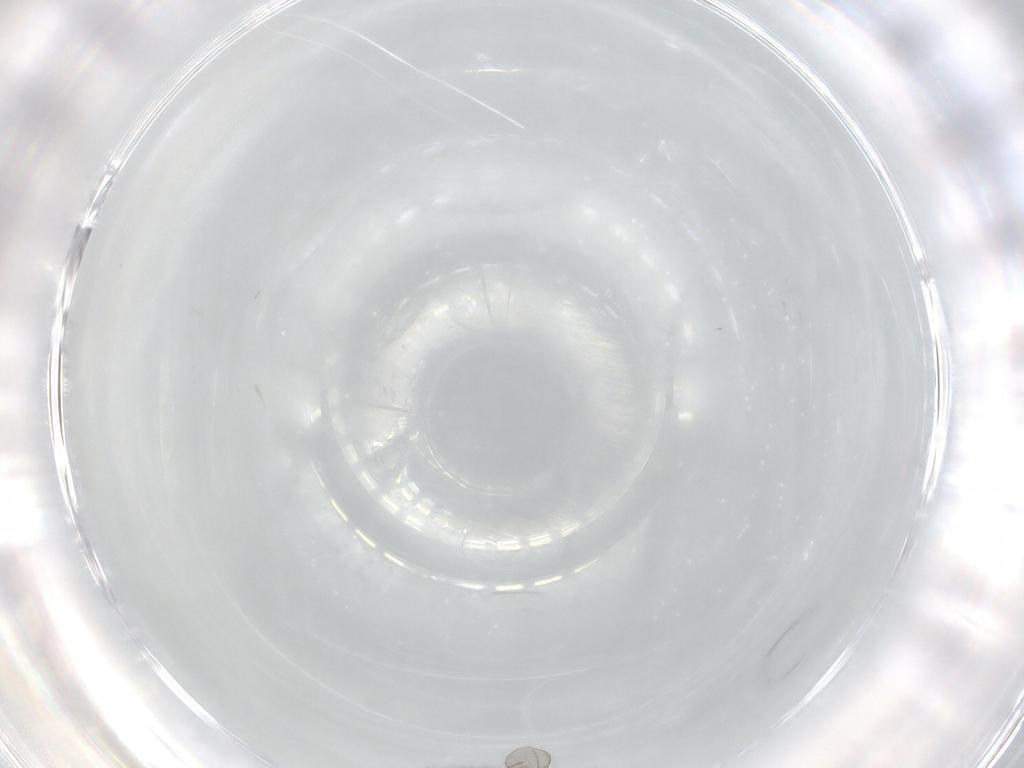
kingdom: Animalia
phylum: Arthropoda
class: Insecta
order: Diptera
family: Cecidomyiidae
